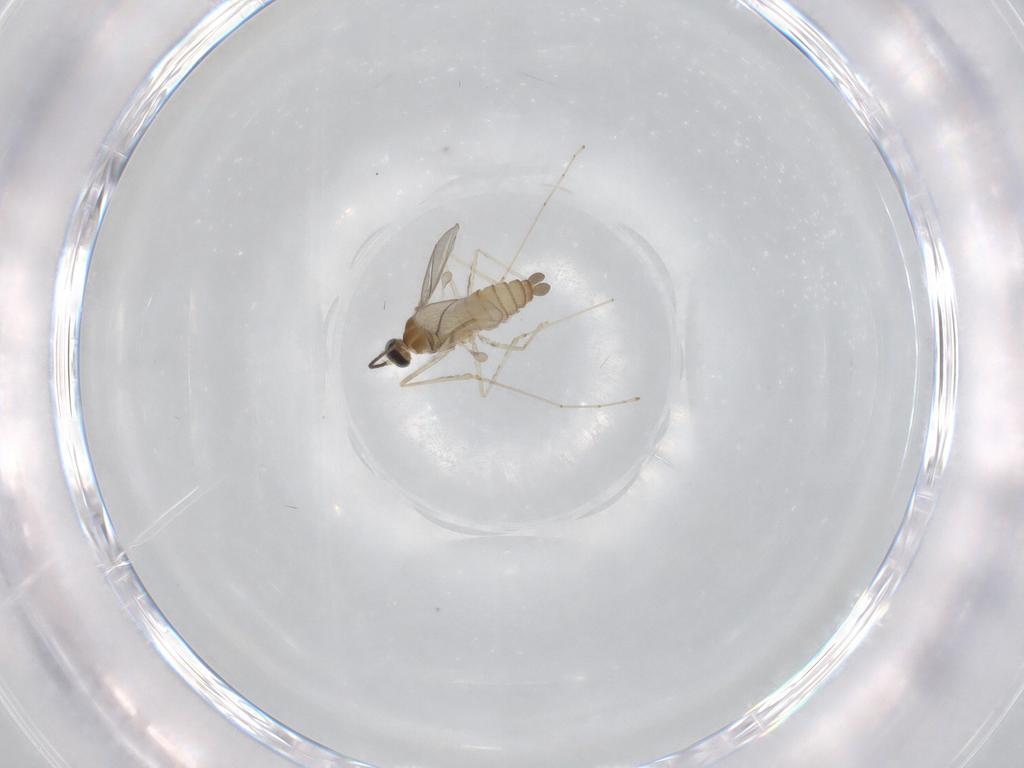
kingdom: Animalia
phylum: Arthropoda
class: Insecta
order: Diptera
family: Cecidomyiidae
